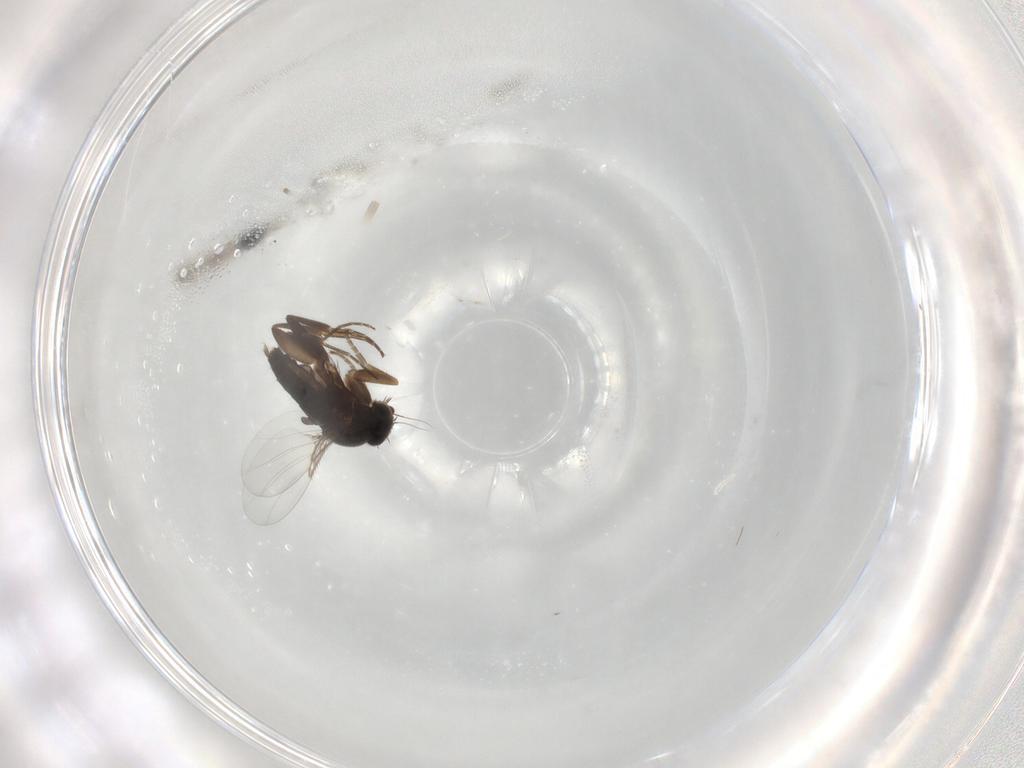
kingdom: Animalia
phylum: Arthropoda
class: Insecta
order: Diptera
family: Phoridae
